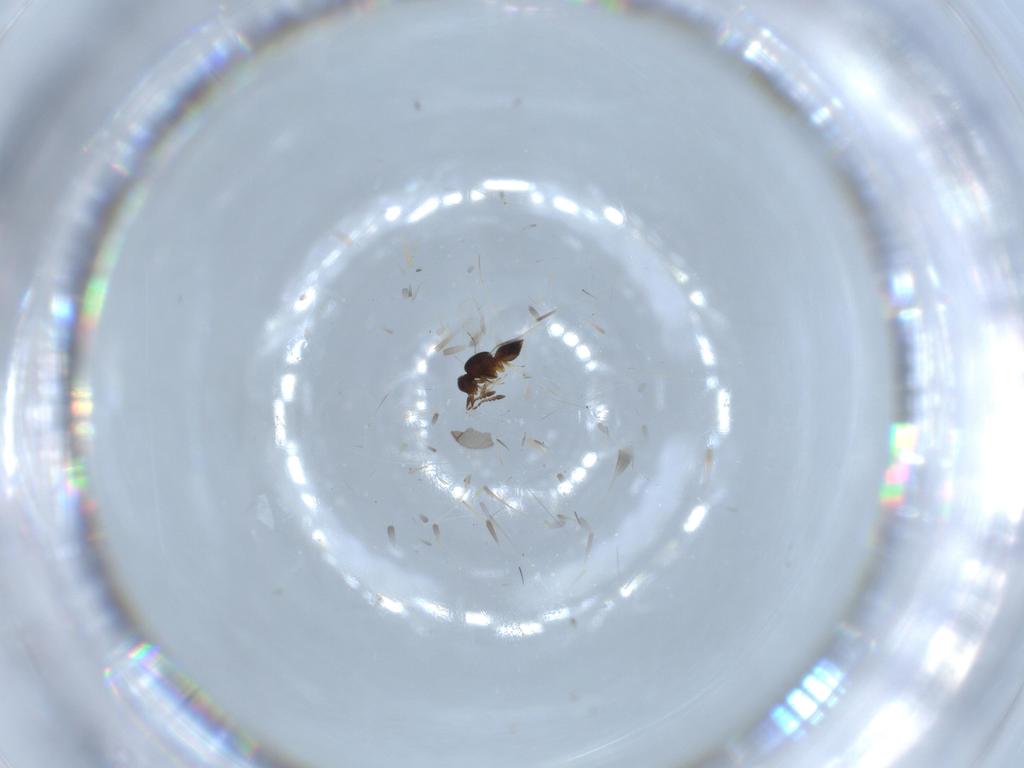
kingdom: Animalia
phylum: Arthropoda
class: Insecta
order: Hymenoptera
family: Ceraphronidae
